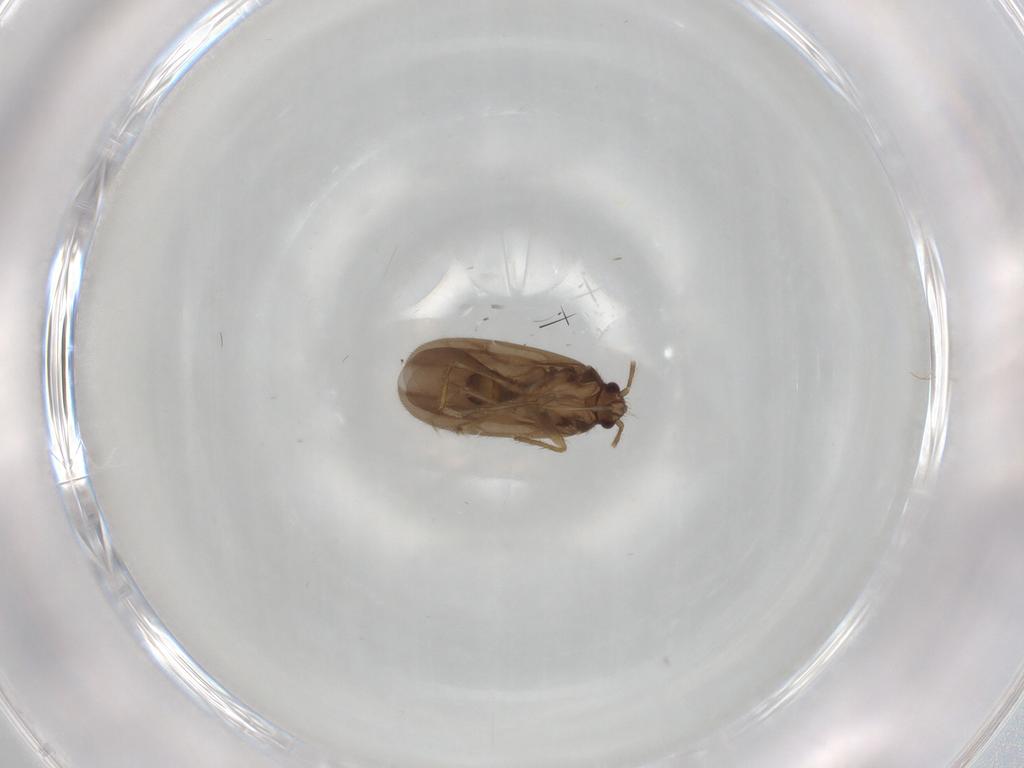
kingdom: Animalia
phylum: Arthropoda
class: Insecta
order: Hemiptera
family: Ceratocombidae
